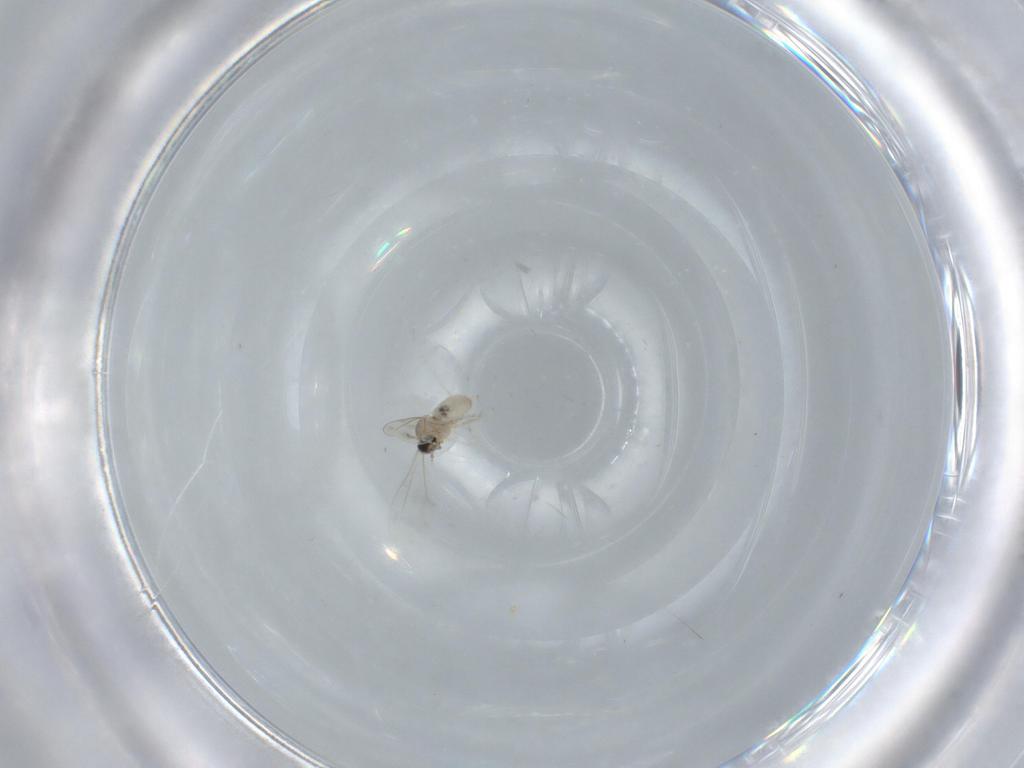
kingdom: Animalia
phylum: Arthropoda
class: Insecta
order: Diptera
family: Cecidomyiidae
